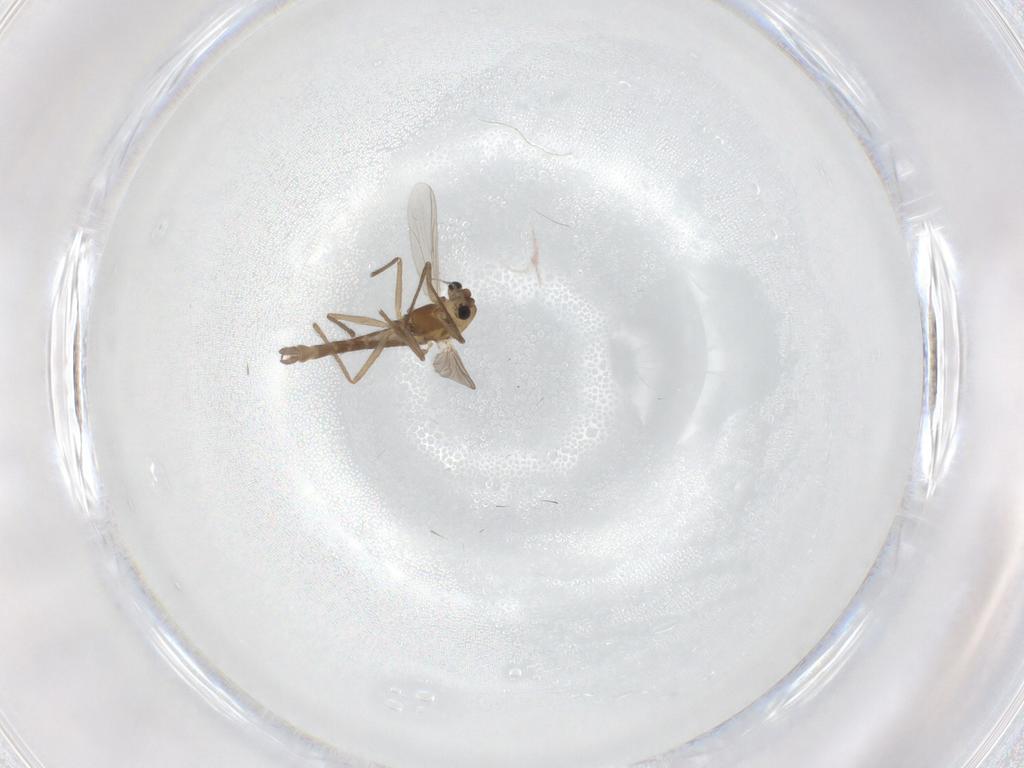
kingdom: Animalia
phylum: Arthropoda
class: Insecta
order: Diptera
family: Chironomidae
